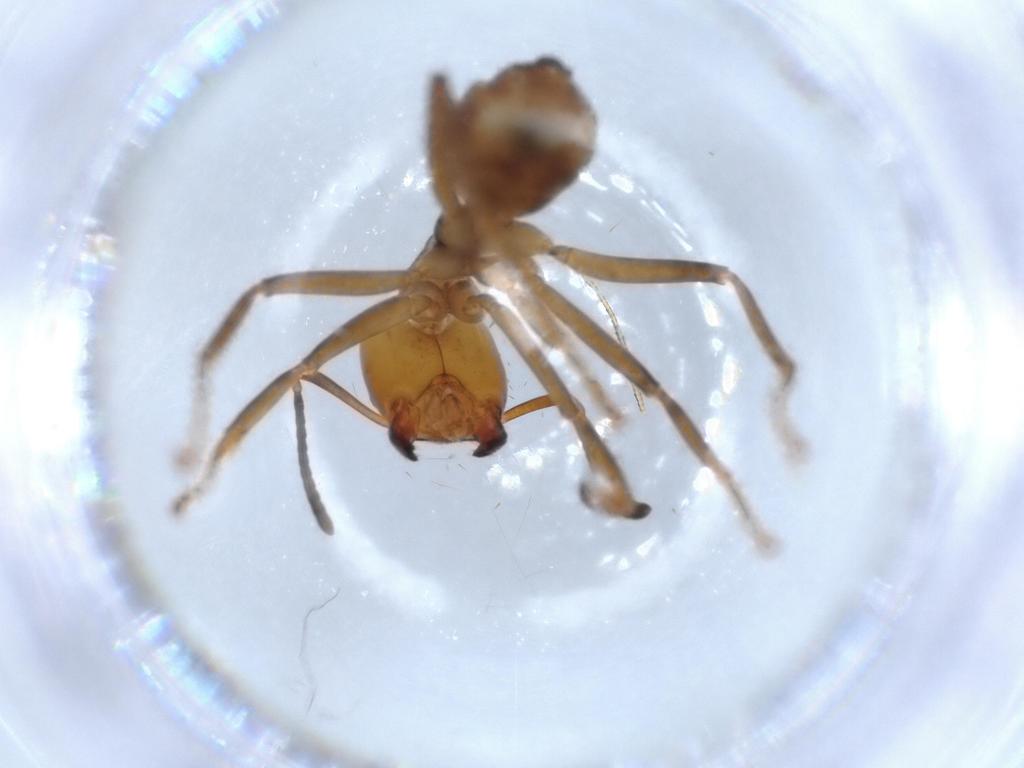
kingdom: Animalia
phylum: Arthropoda
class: Insecta
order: Hymenoptera
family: Formicidae
